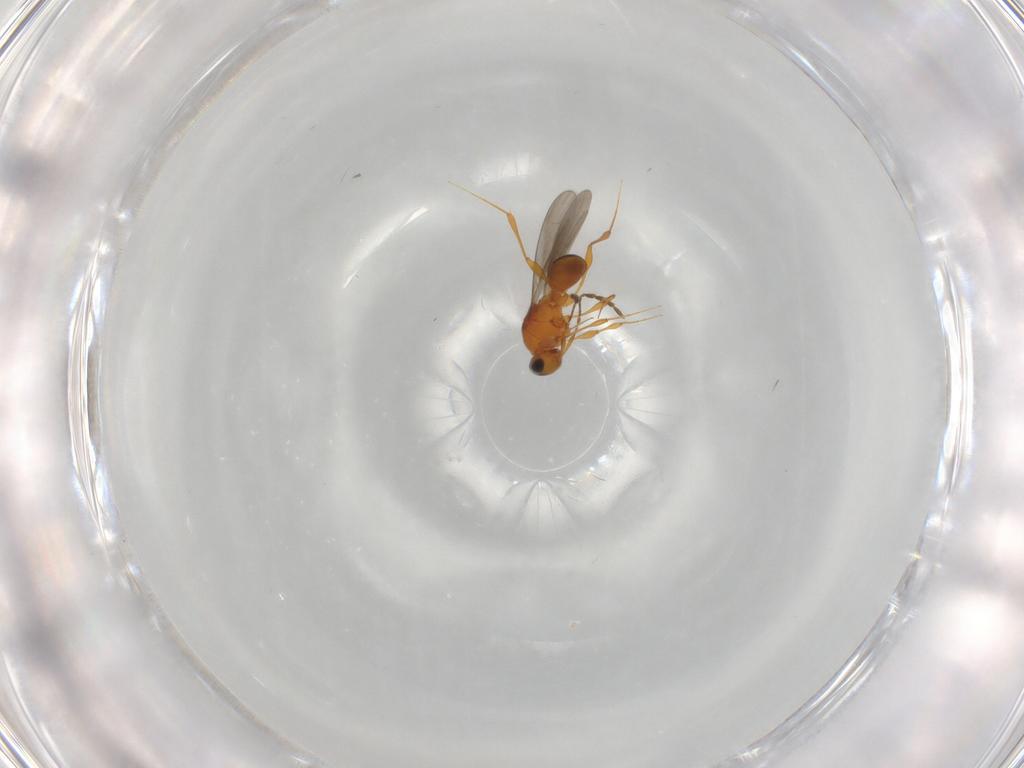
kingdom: Animalia
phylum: Arthropoda
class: Insecta
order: Hymenoptera
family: Platygastridae
